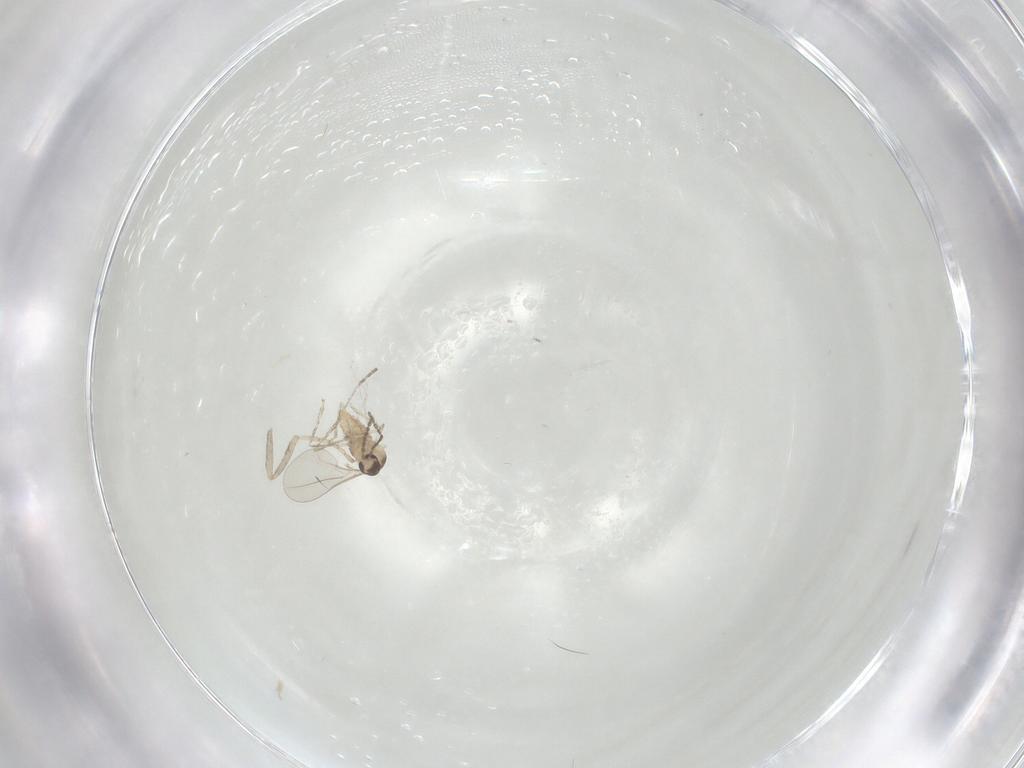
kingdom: Animalia
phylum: Arthropoda
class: Insecta
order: Diptera
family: Cecidomyiidae
